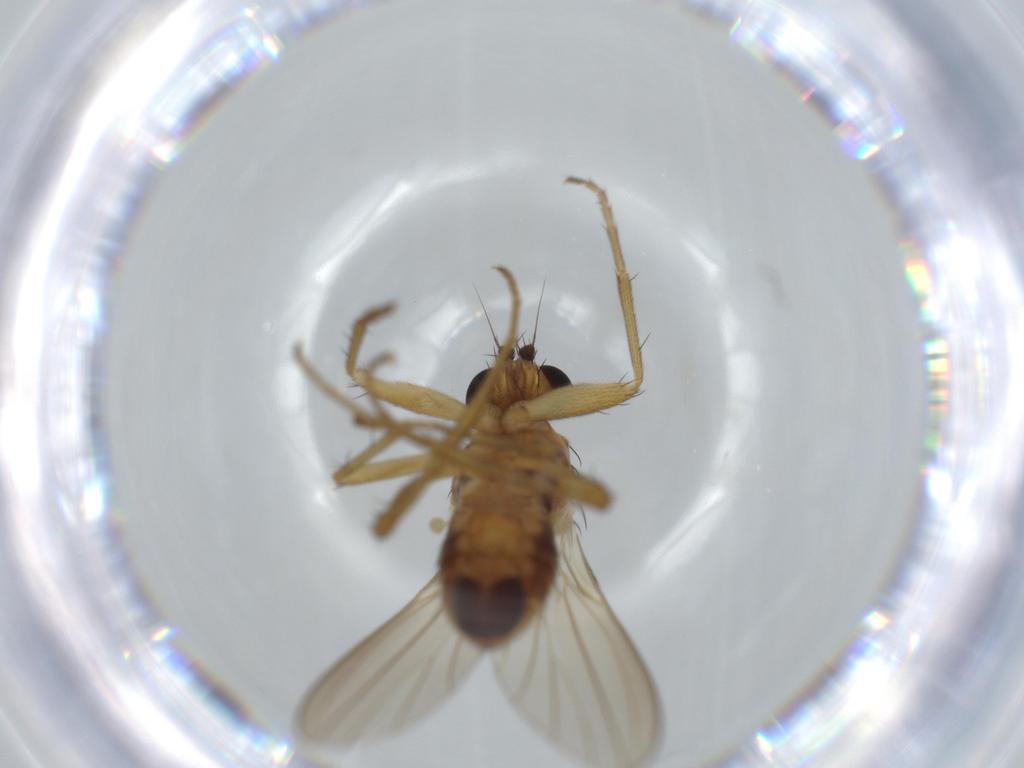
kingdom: Animalia
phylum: Arthropoda
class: Insecta
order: Diptera
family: Lonchopteridae
